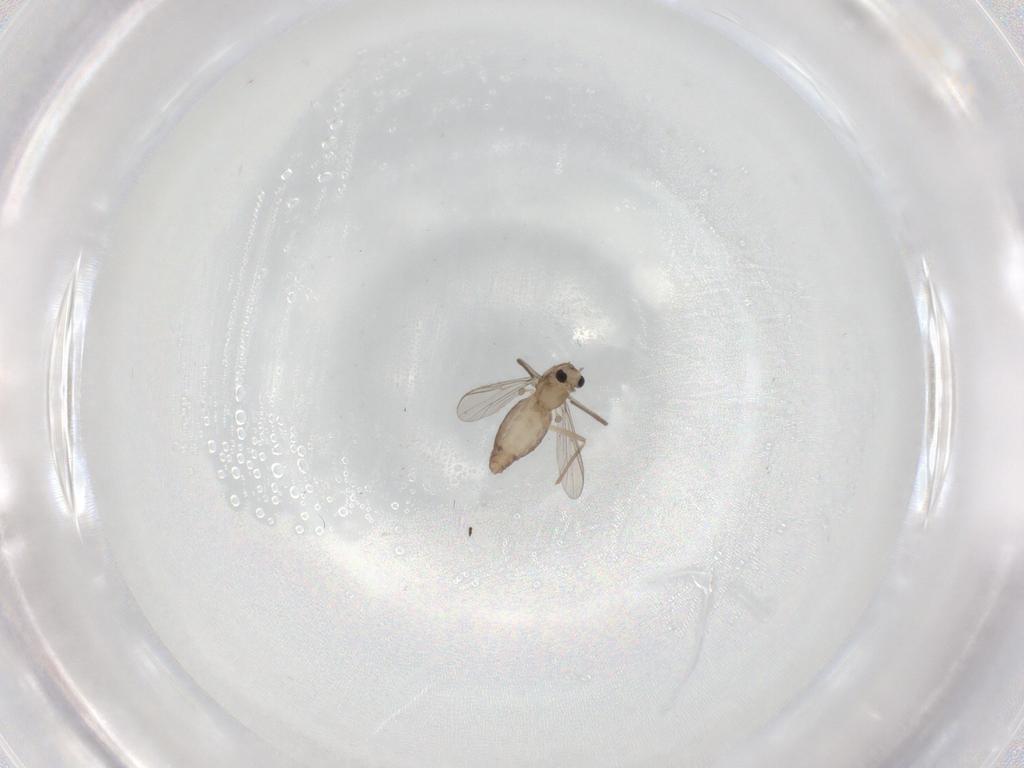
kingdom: Animalia
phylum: Arthropoda
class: Insecta
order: Diptera
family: Chironomidae
